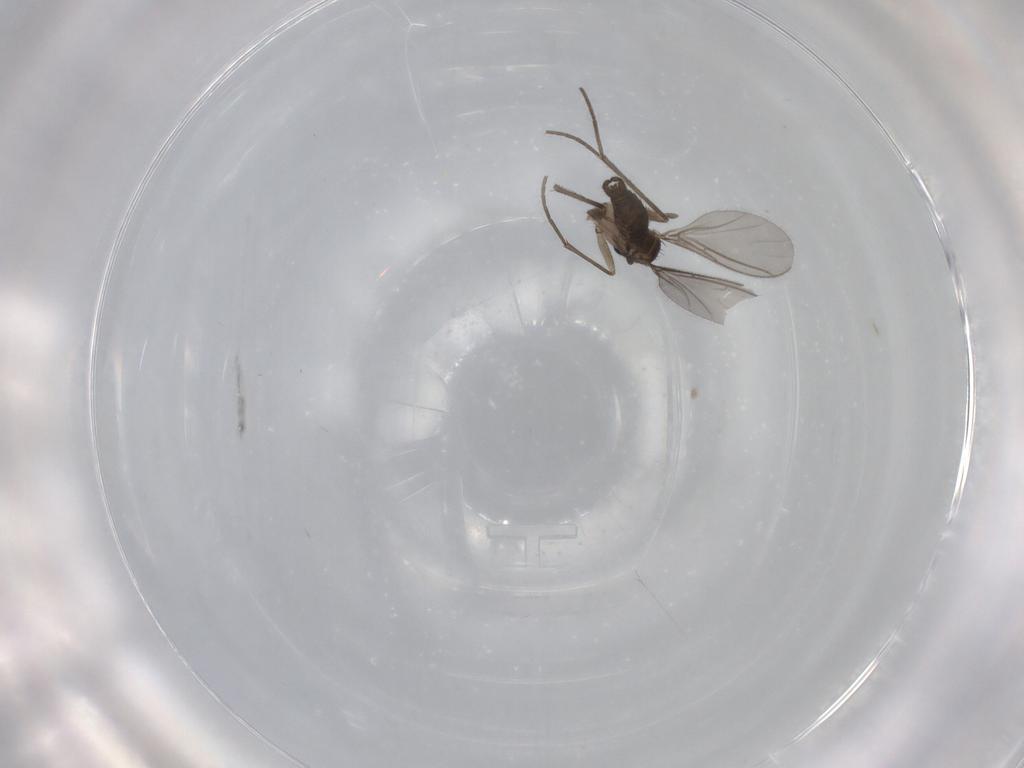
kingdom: Animalia
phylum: Arthropoda
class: Insecta
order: Diptera
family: Sciaridae
